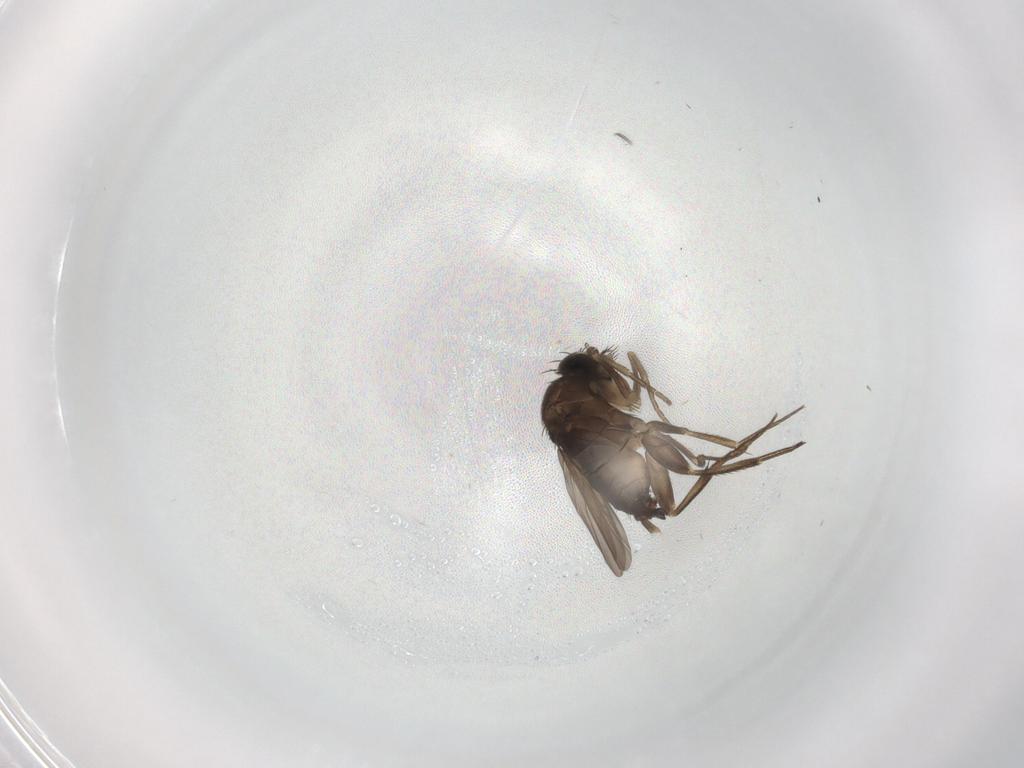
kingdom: Animalia
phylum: Arthropoda
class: Insecta
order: Diptera
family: Phoridae
